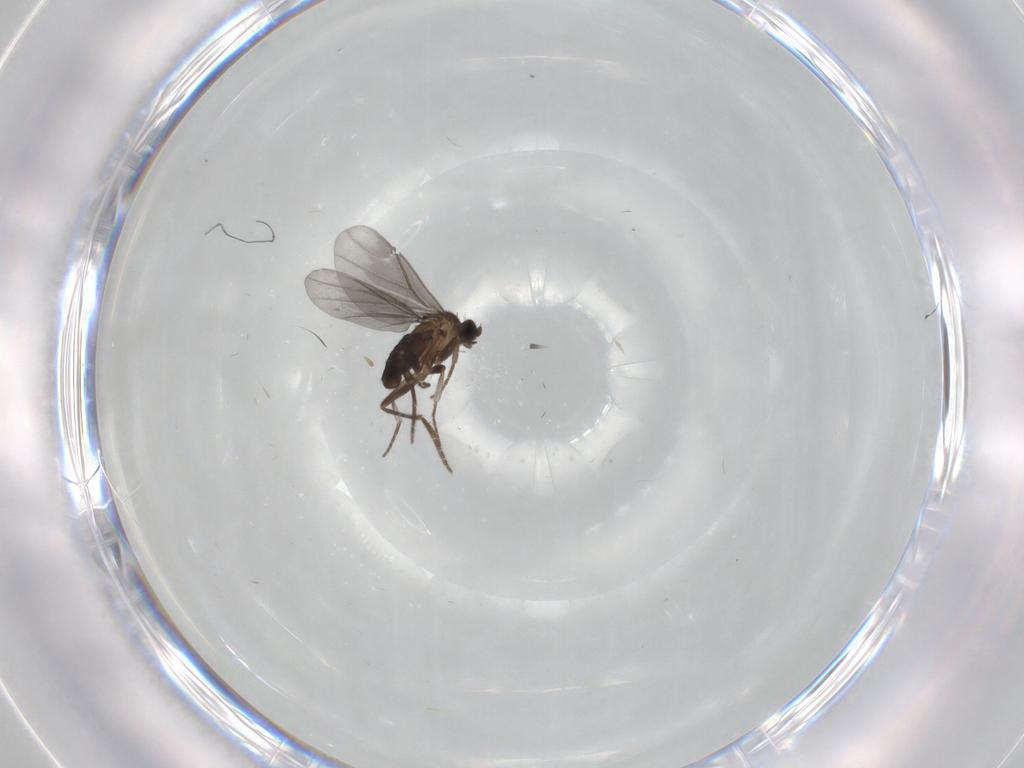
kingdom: Animalia
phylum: Arthropoda
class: Insecta
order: Diptera
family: Phoridae
